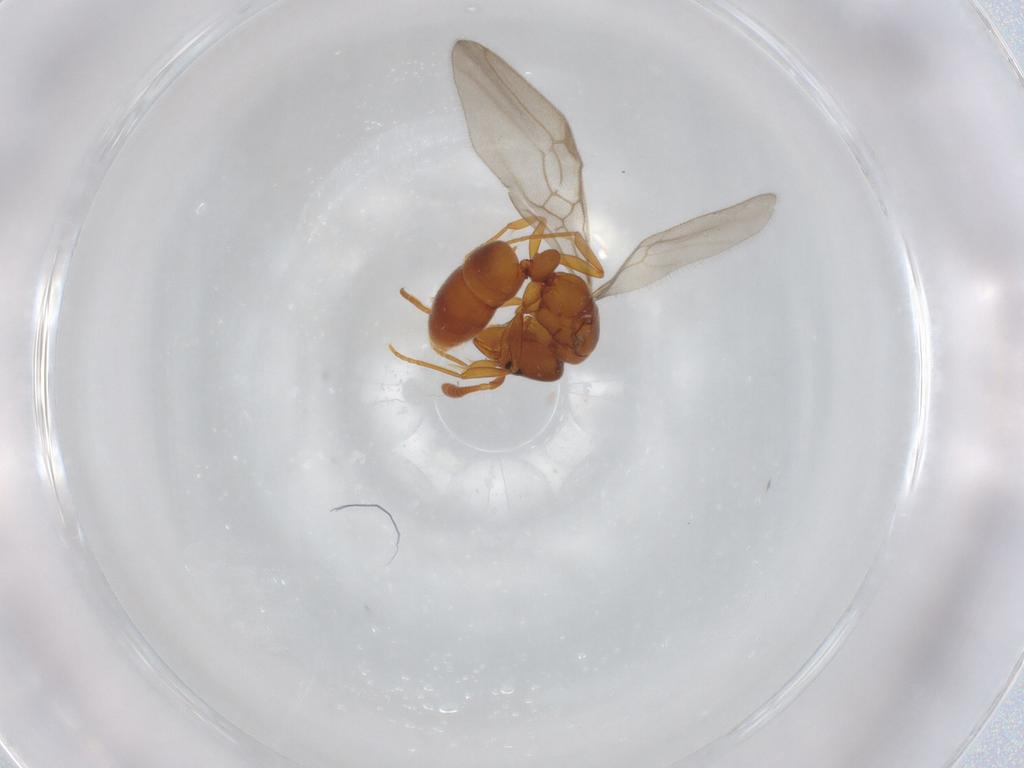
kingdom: Animalia
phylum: Arthropoda
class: Insecta
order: Hymenoptera
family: Formicidae
